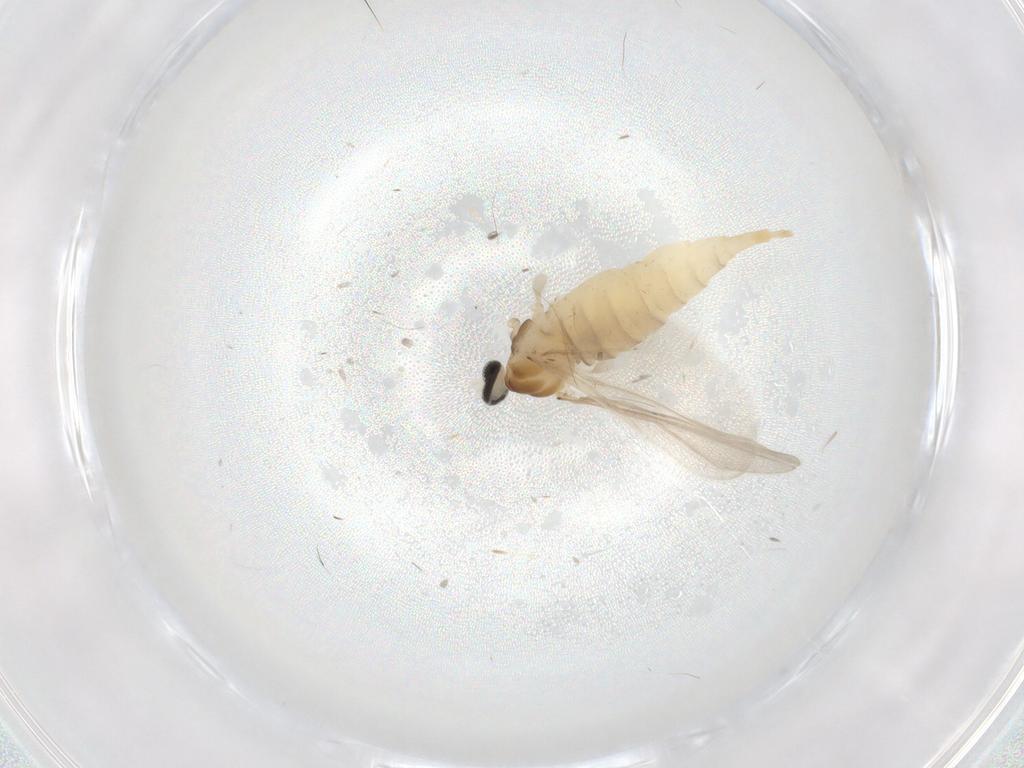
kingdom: Animalia
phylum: Arthropoda
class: Insecta
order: Diptera
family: Cecidomyiidae
